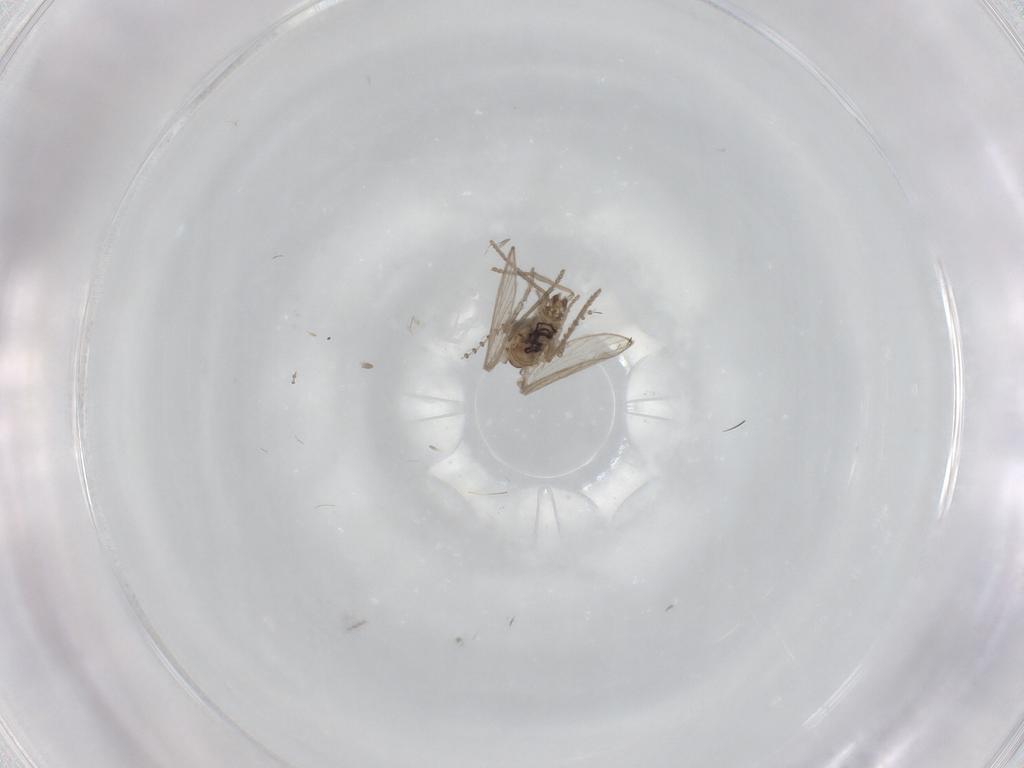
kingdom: Animalia
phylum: Arthropoda
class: Insecta
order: Diptera
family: Psychodidae
